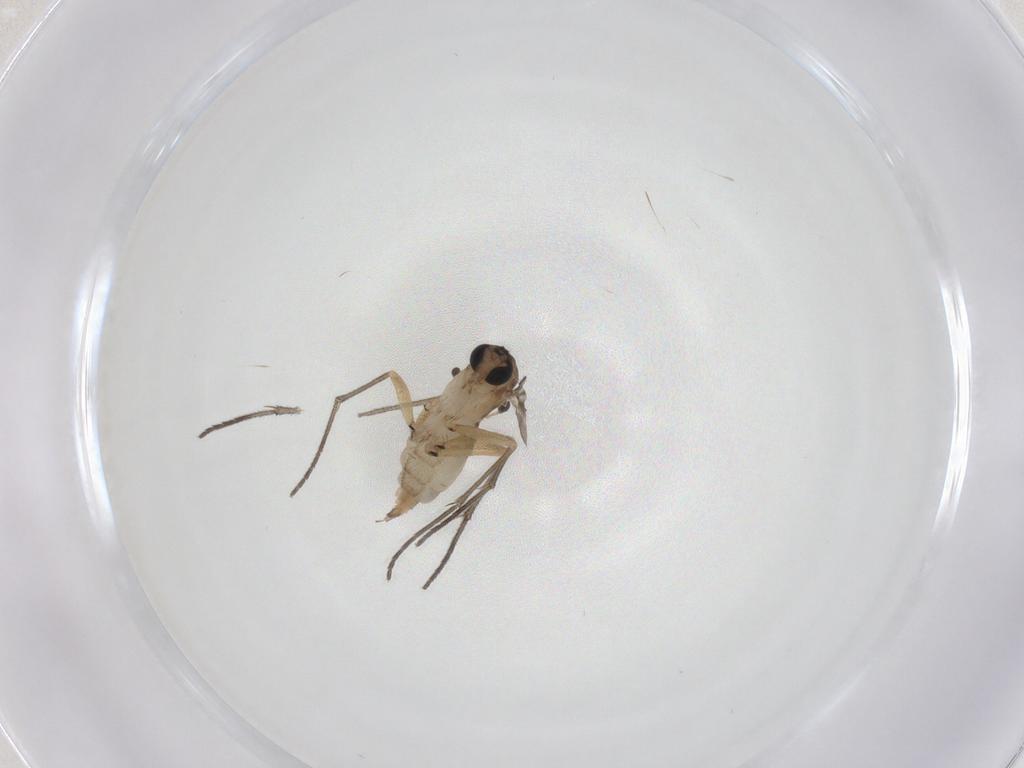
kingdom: Animalia
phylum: Arthropoda
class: Insecta
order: Diptera
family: Sciaridae
